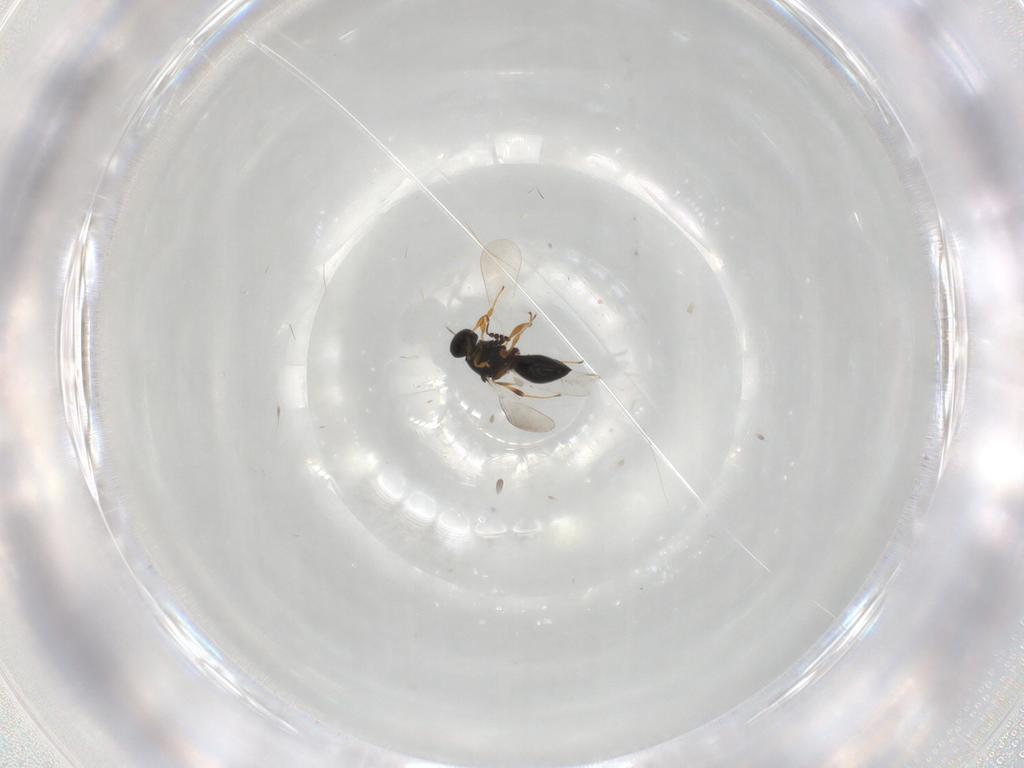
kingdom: Animalia
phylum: Arthropoda
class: Insecta
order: Hymenoptera
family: Platygastridae
